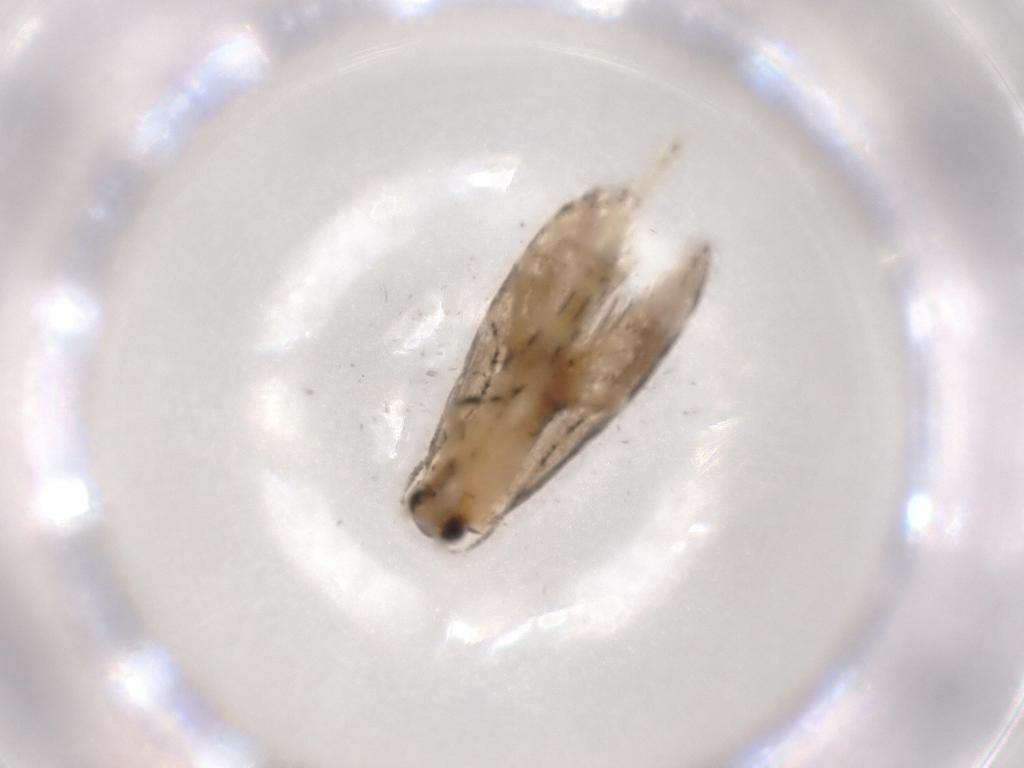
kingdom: Animalia
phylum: Arthropoda
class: Insecta
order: Lepidoptera
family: Tineidae
